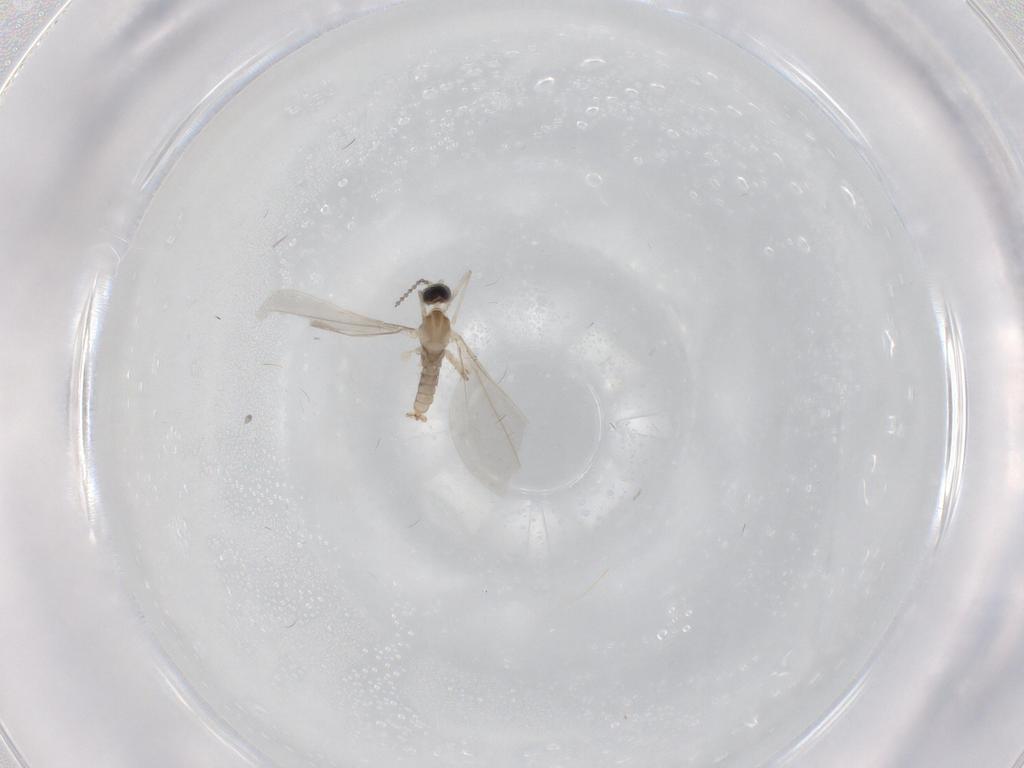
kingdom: Animalia
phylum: Arthropoda
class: Insecta
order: Diptera
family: Cecidomyiidae
